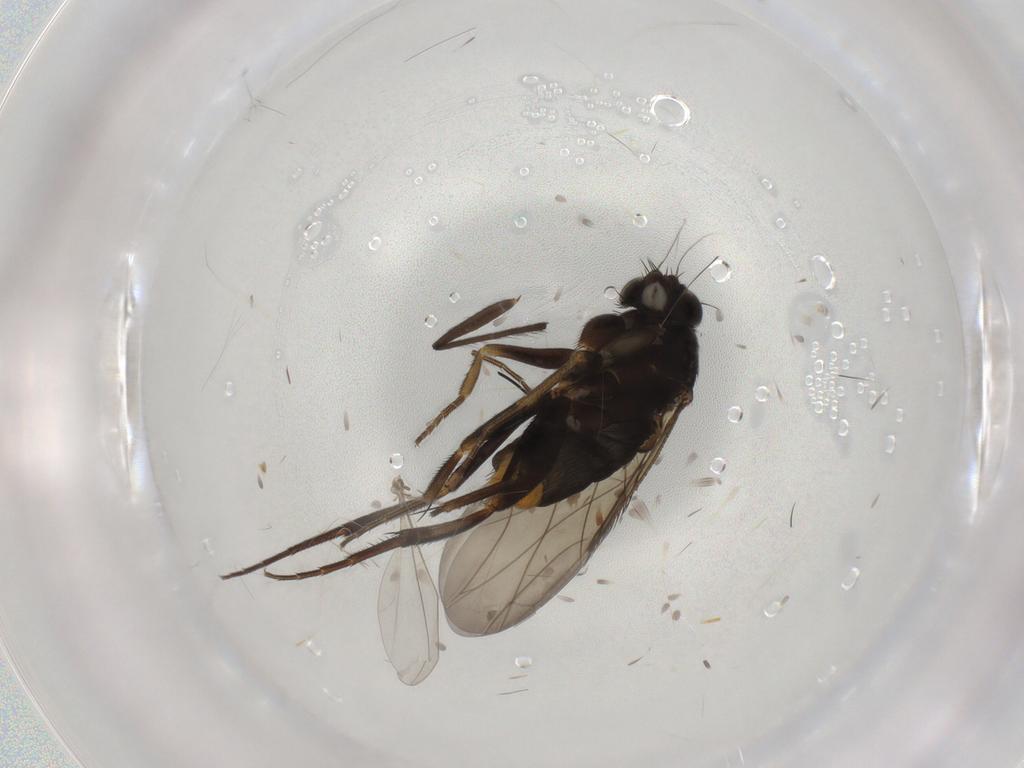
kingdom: Animalia
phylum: Arthropoda
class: Insecta
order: Diptera
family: Phoridae
